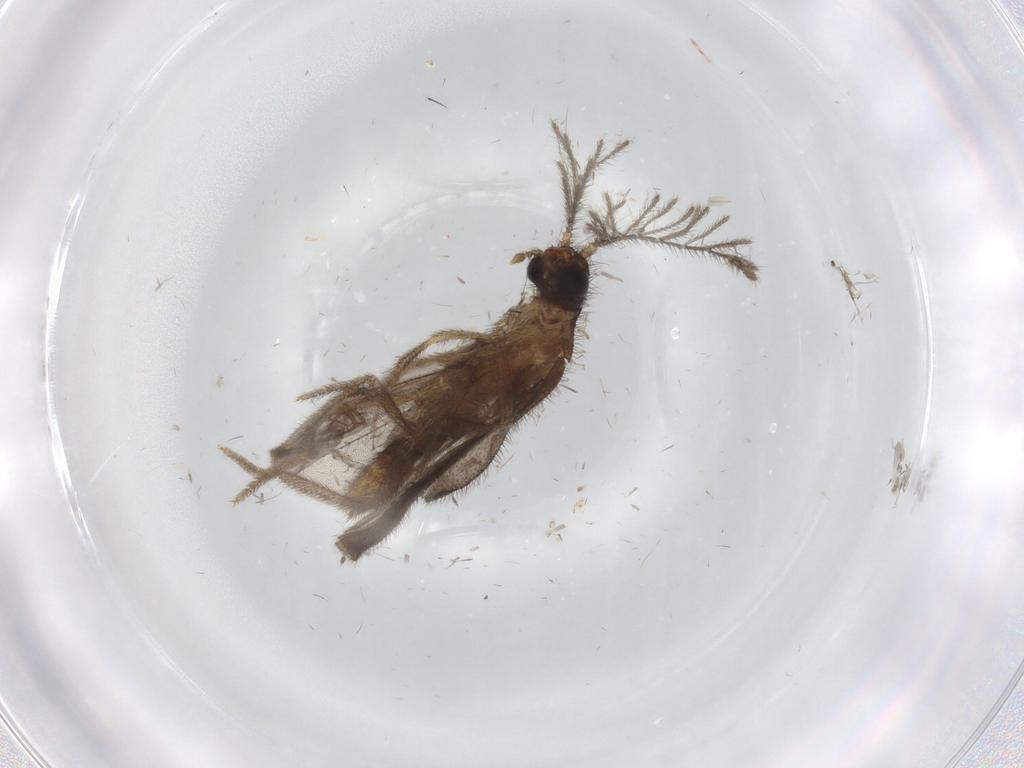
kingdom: Animalia
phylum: Arthropoda
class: Insecta
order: Coleoptera
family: Phengodidae
